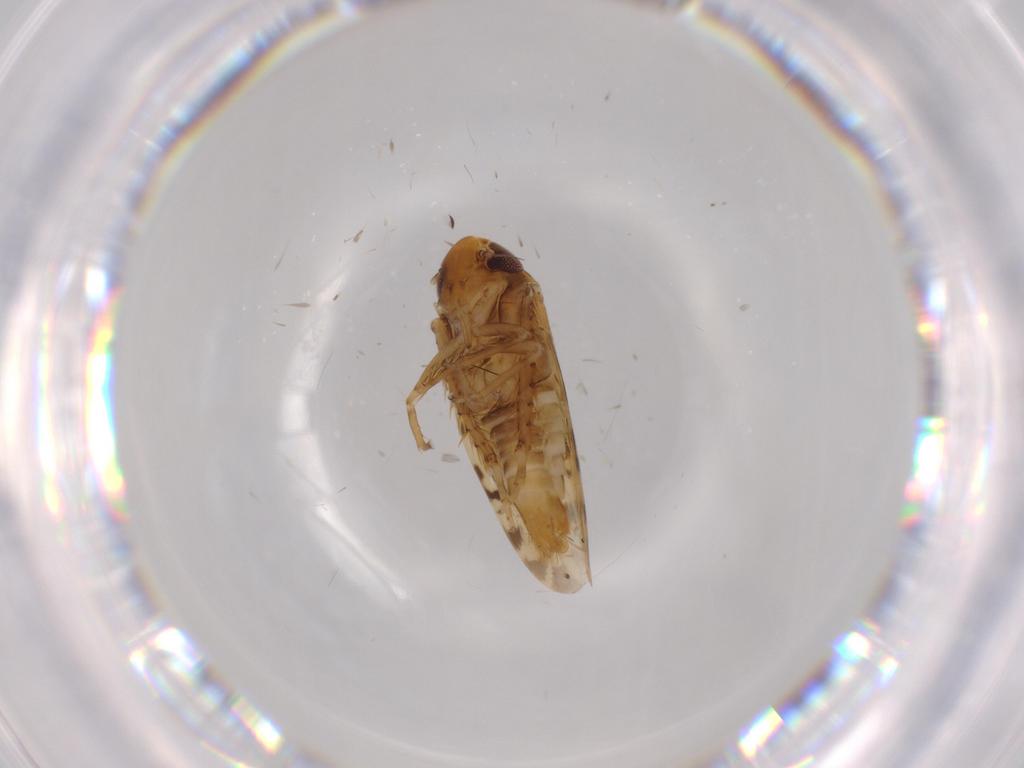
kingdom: Animalia
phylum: Arthropoda
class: Insecta
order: Hemiptera
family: Cicadellidae
